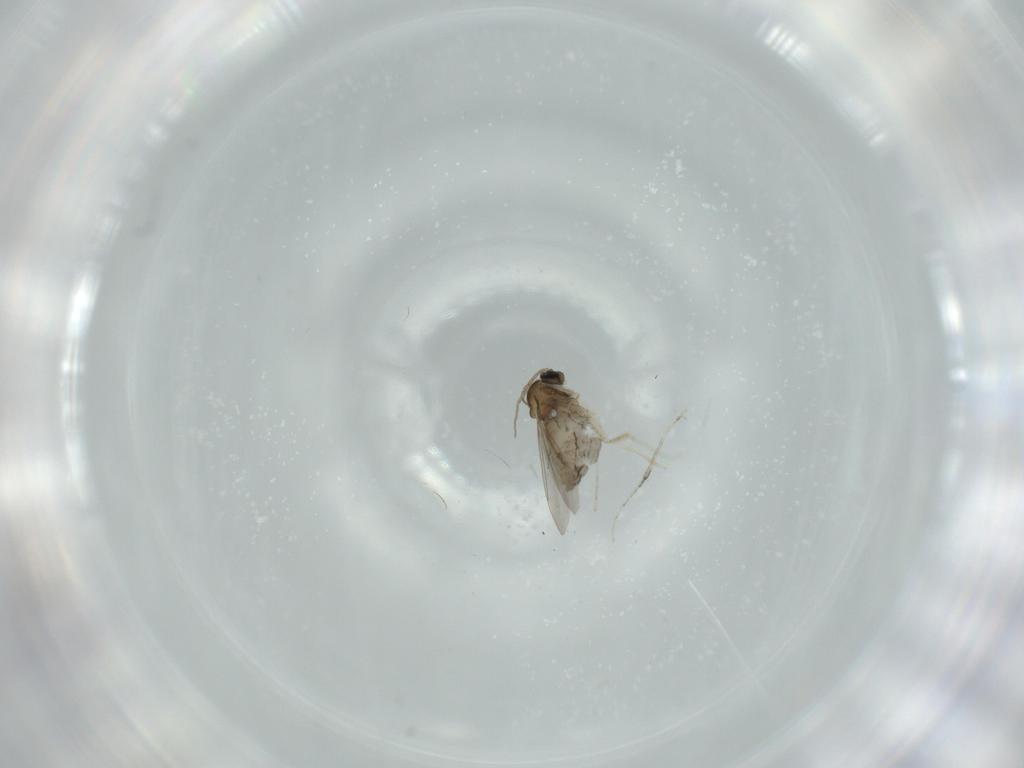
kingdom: Animalia
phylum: Arthropoda
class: Insecta
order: Diptera
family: Cecidomyiidae
